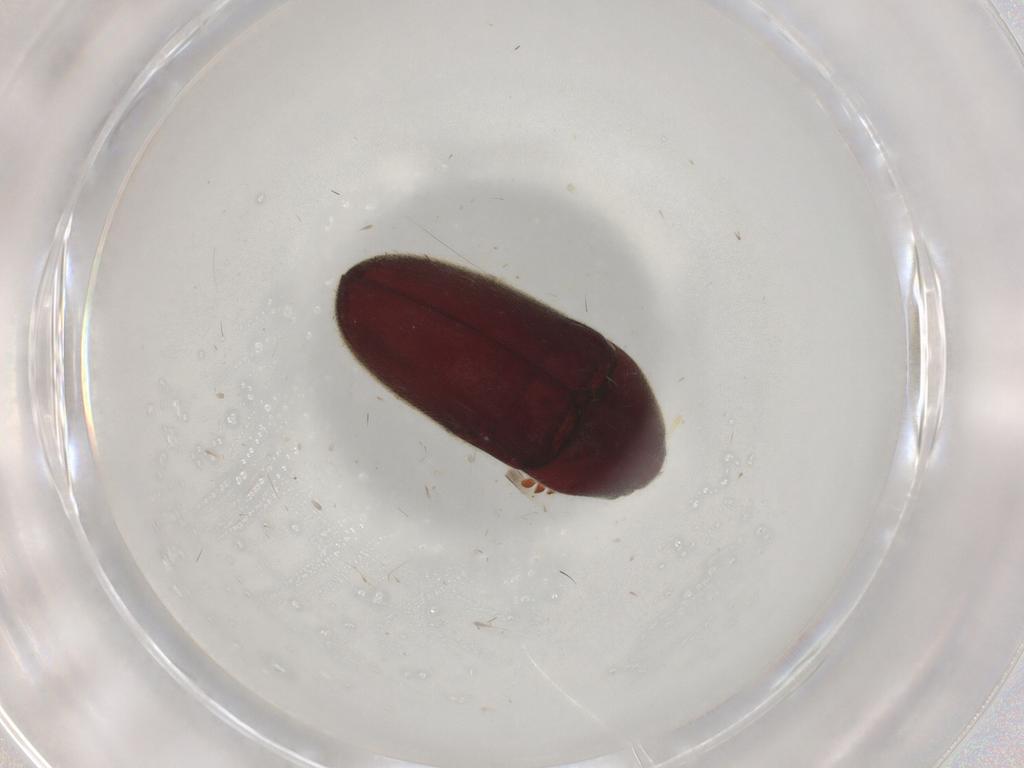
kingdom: Animalia
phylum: Arthropoda
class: Insecta
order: Coleoptera
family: Throscidae
